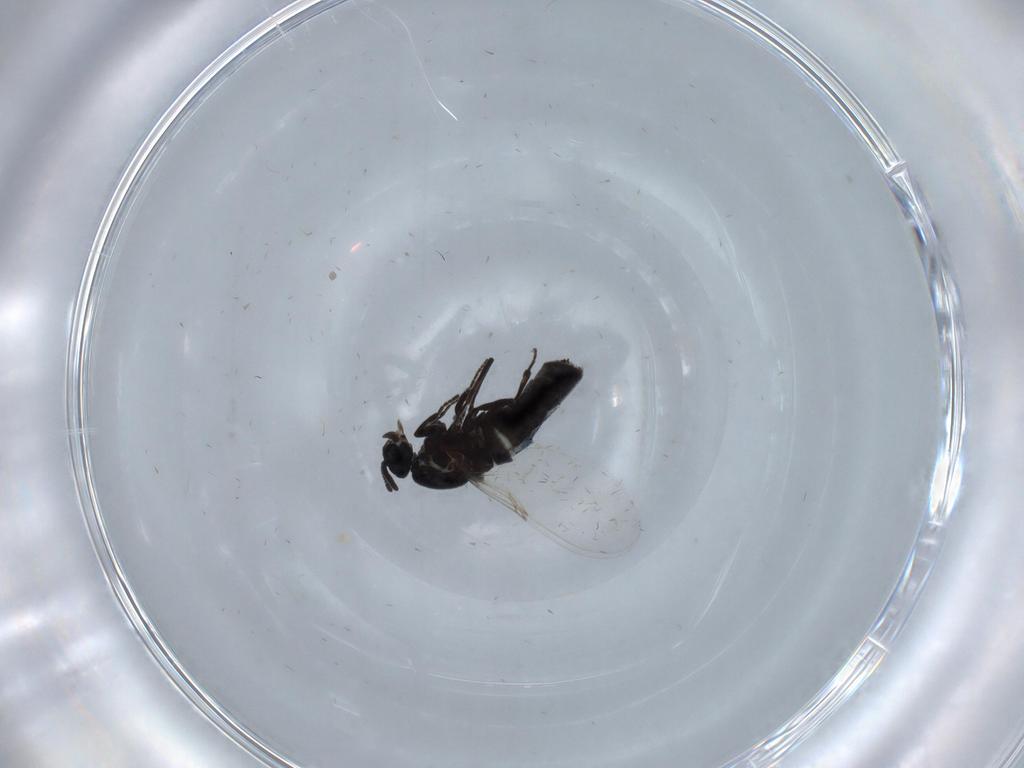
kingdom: Animalia
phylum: Arthropoda
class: Insecta
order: Diptera
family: Scatopsidae
